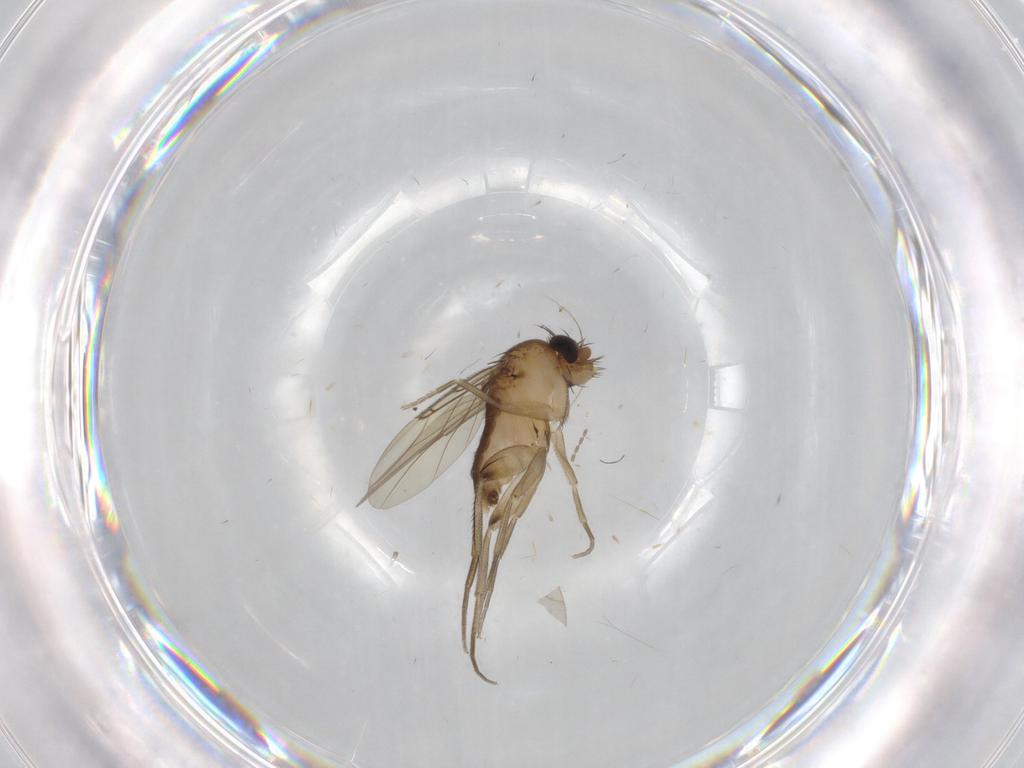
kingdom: Animalia
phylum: Arthropoda
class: Insecta
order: Diptera
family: Phoridae
